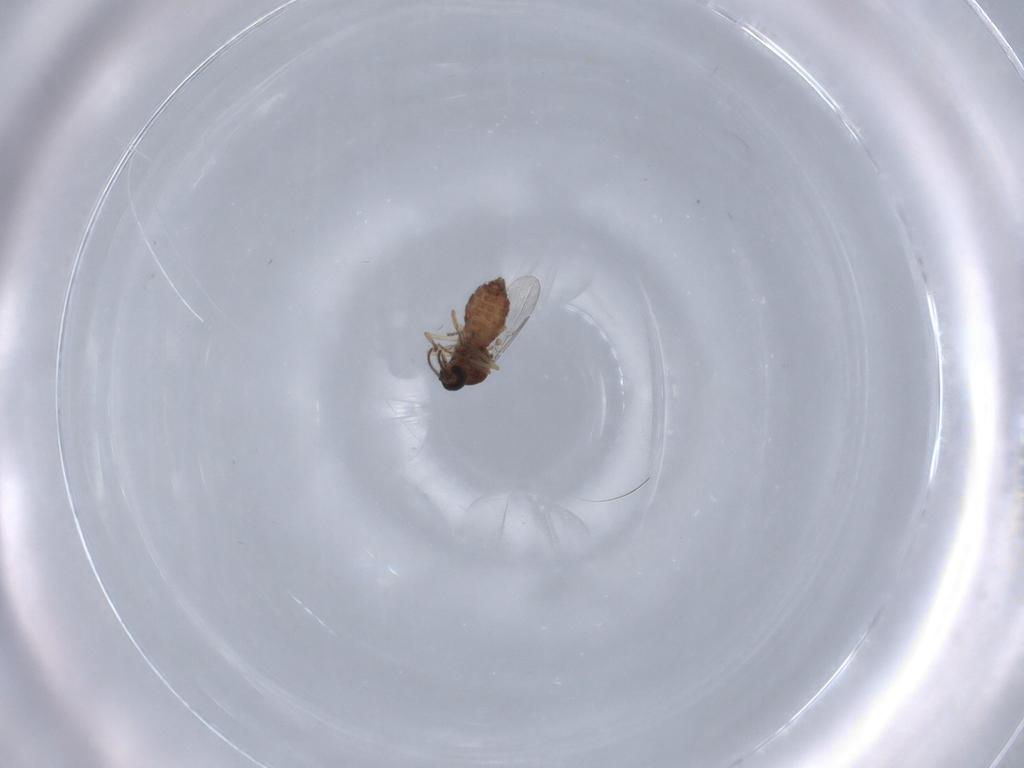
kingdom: Animalia
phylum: Arthropoda
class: Insecta
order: Diptera
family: Ceratopogonidae
